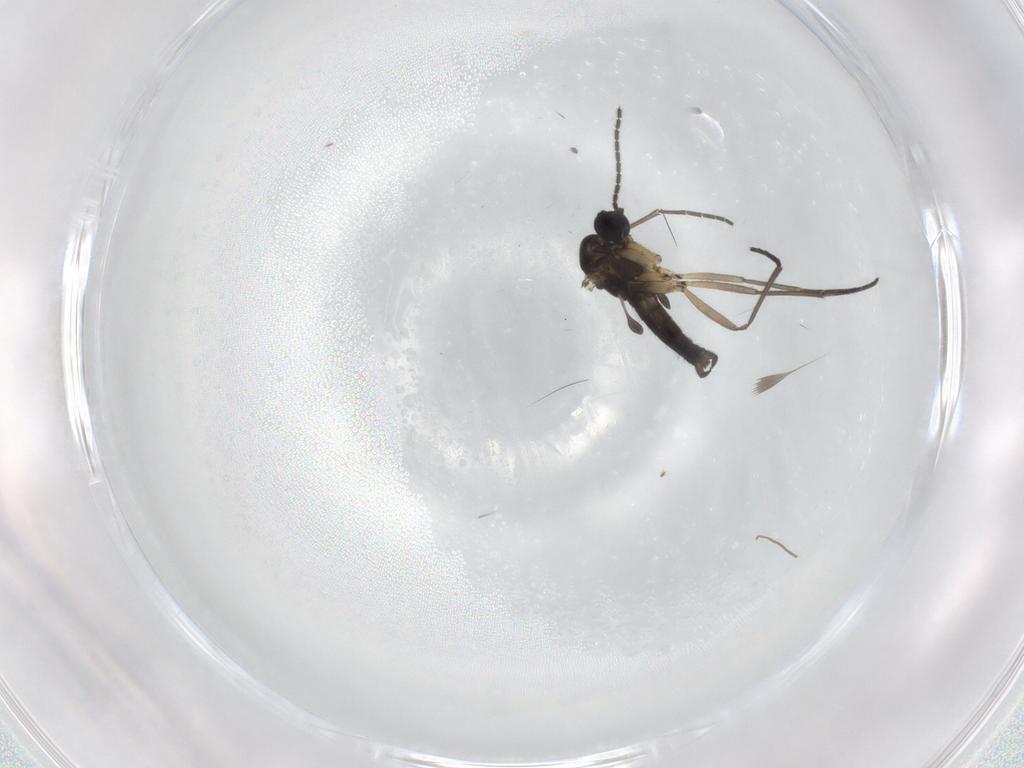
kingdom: Animalia
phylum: Arthropoda
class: Insecta
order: Diptera
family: Sciaridae
